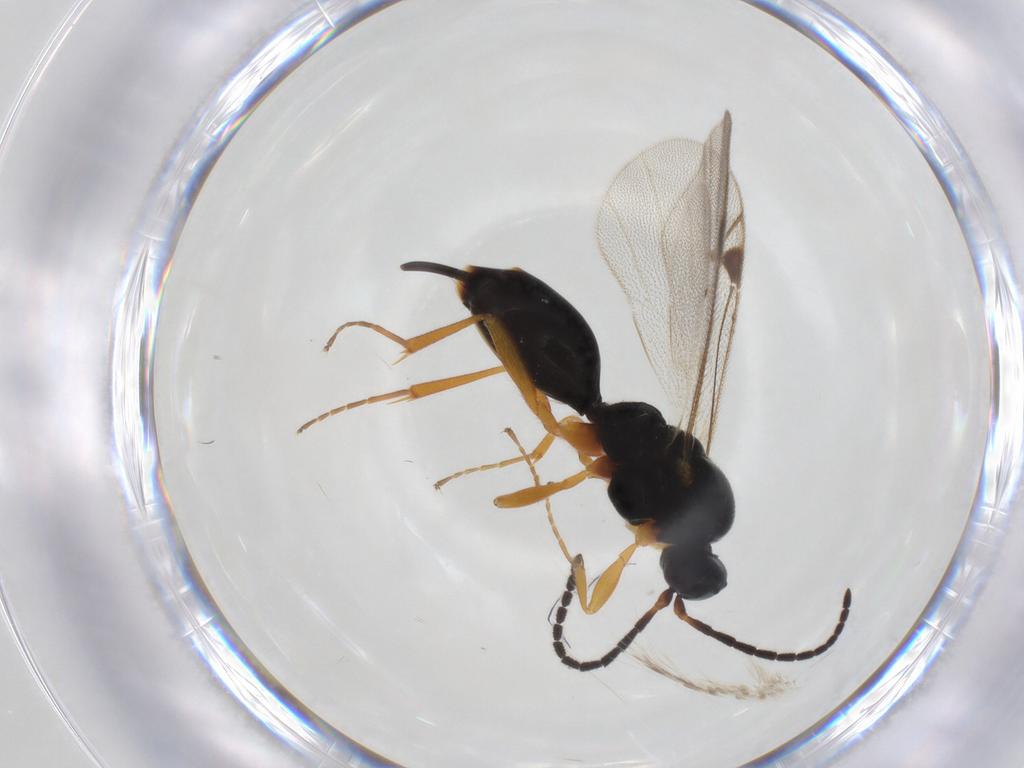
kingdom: Animalia
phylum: Arthropoda
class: Insecta
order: Hymenoptera
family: Proctotrupidae
